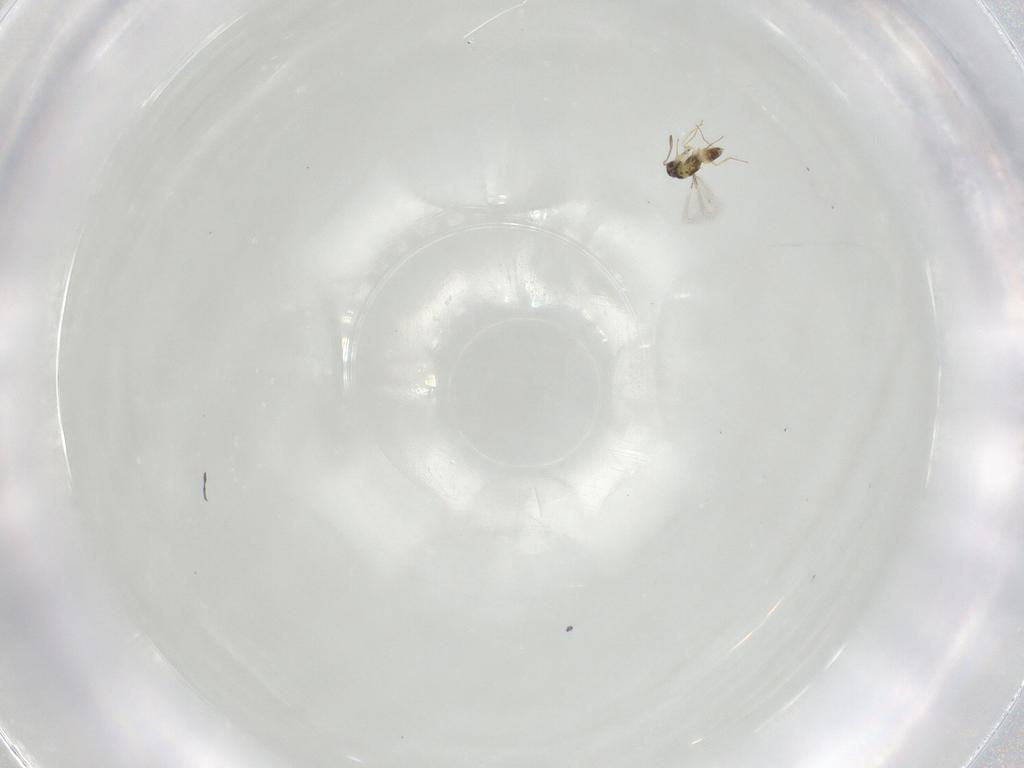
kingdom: Animalia
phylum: Arthropoda
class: Insecta
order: Hymenoptera
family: Mymaridae
